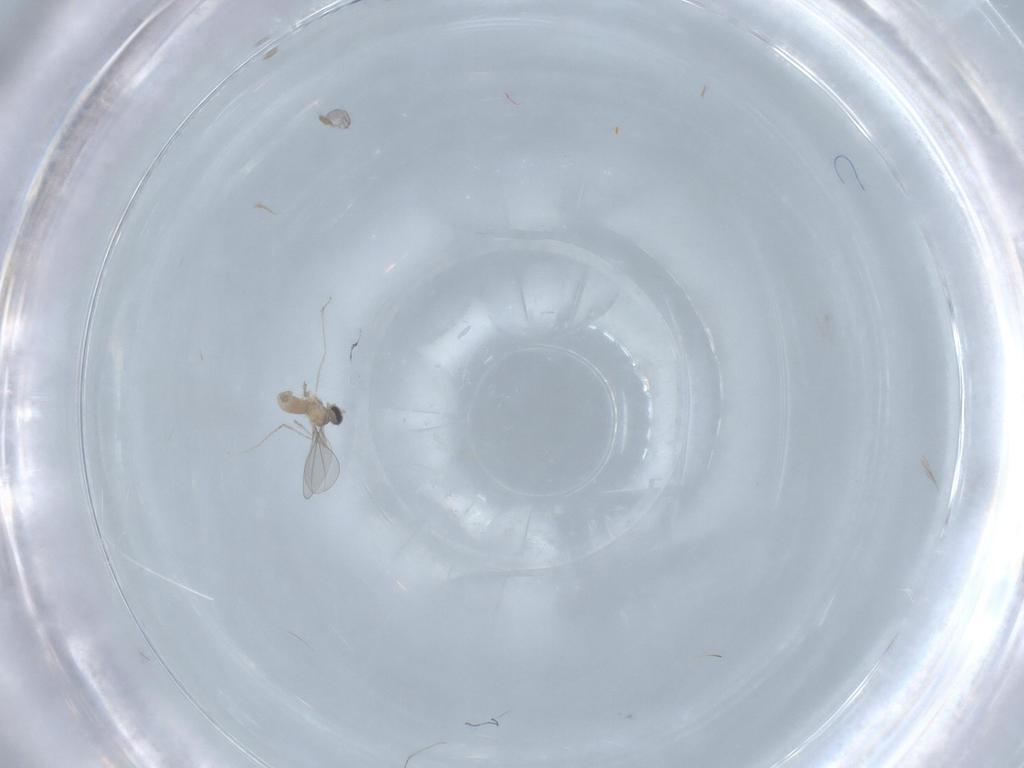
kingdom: Animalia
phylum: Arthropoda
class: Insecta
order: Diptera
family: Cecidomyiidae
